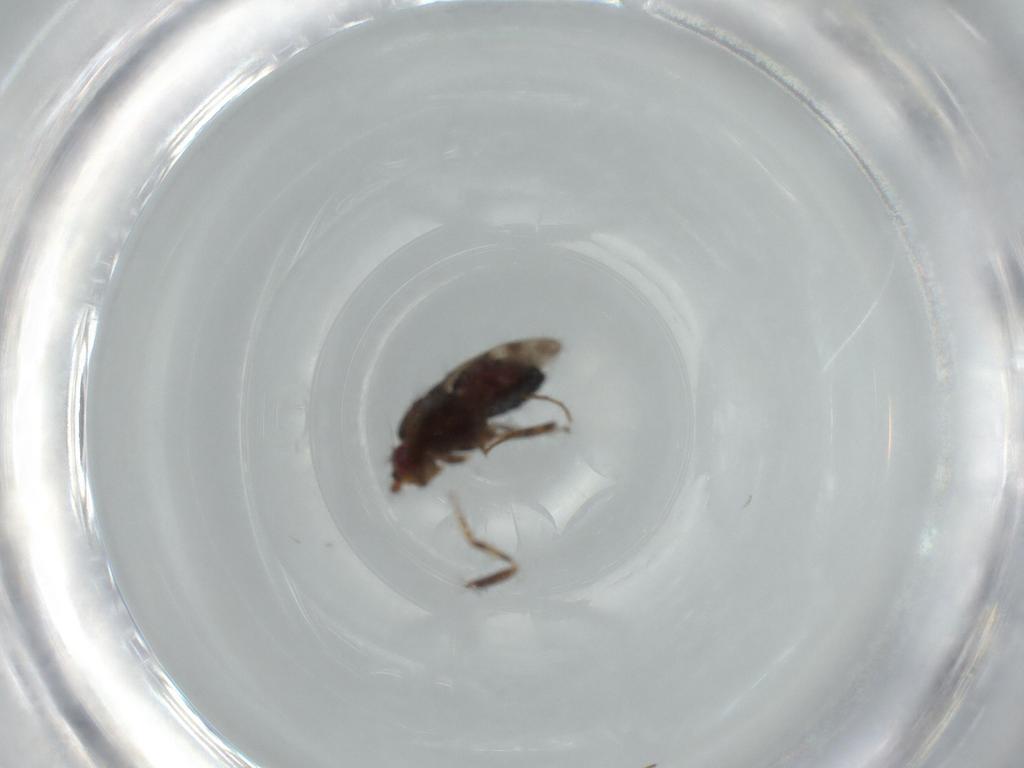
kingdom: Animalia
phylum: Arthropoda
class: Insecta
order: Diptera
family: Sphaeroceridae
